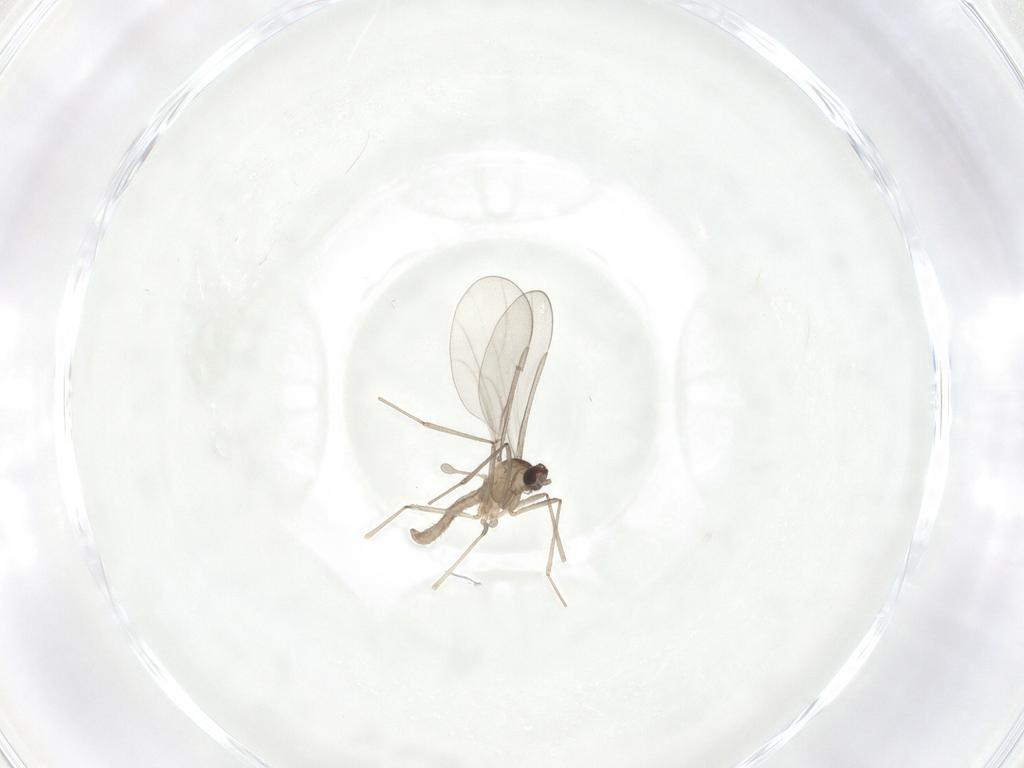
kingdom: Animalia
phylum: Arthropoda
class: Insecta
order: Diptera
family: Cecidomyiidae
